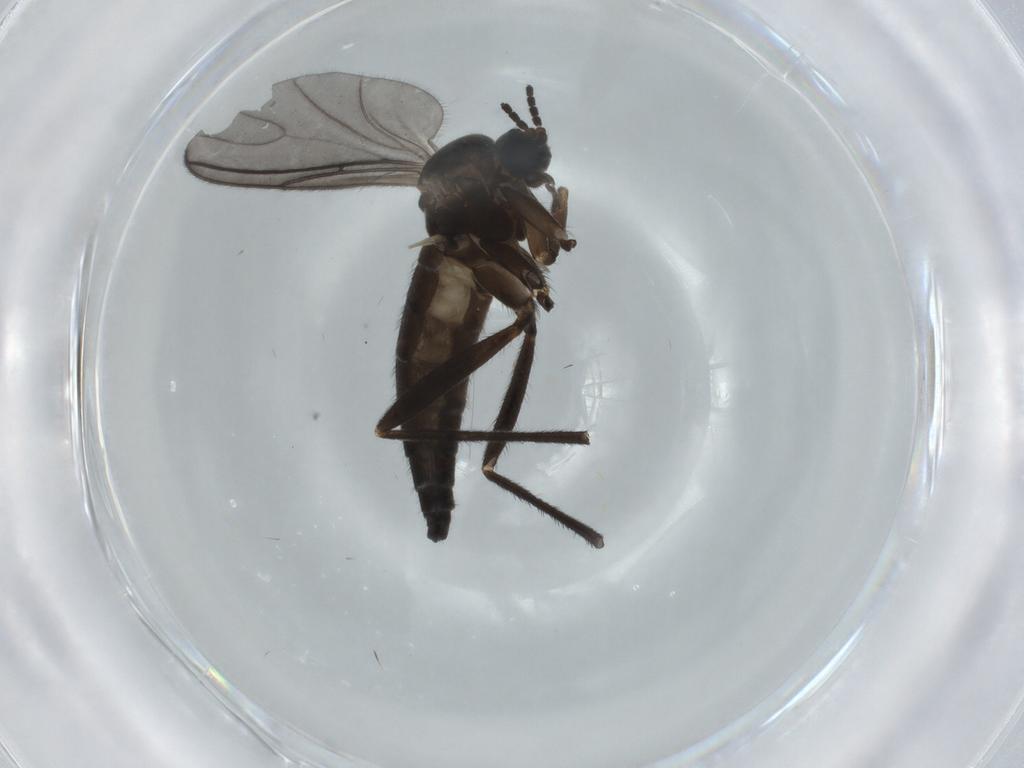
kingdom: Animalia
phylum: Arthropoda
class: Insecta
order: Diptera
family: Sciaridae
